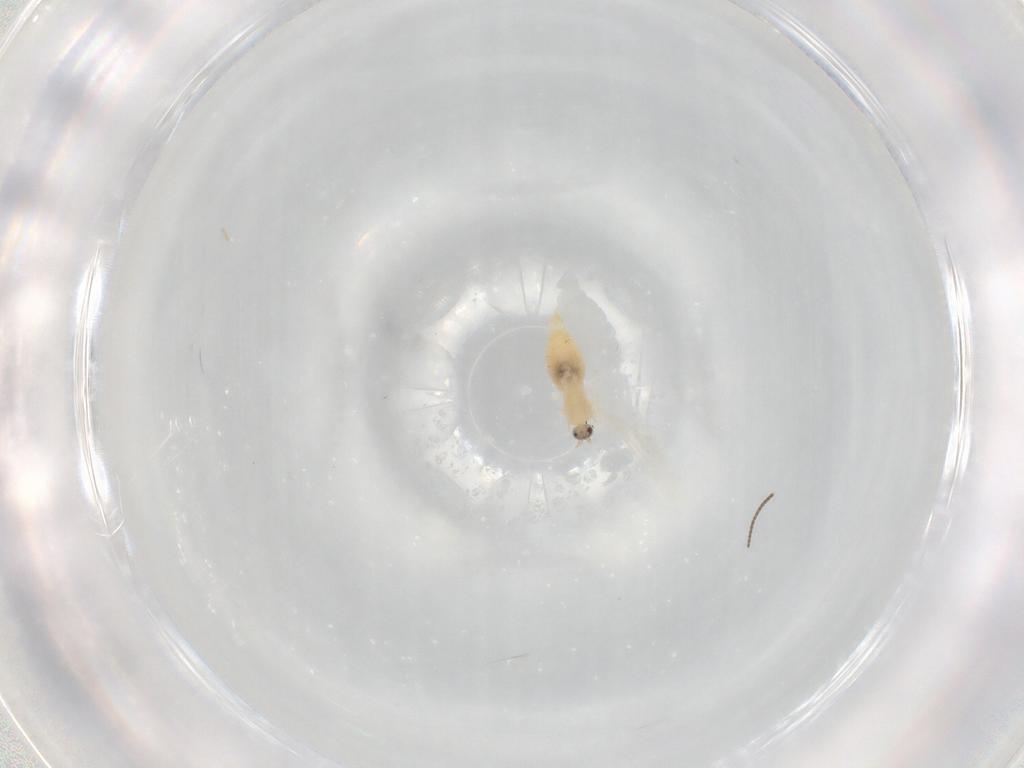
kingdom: Animalia
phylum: Arthropoda
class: Insecta
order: Diptera
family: Cecidomyiidae
